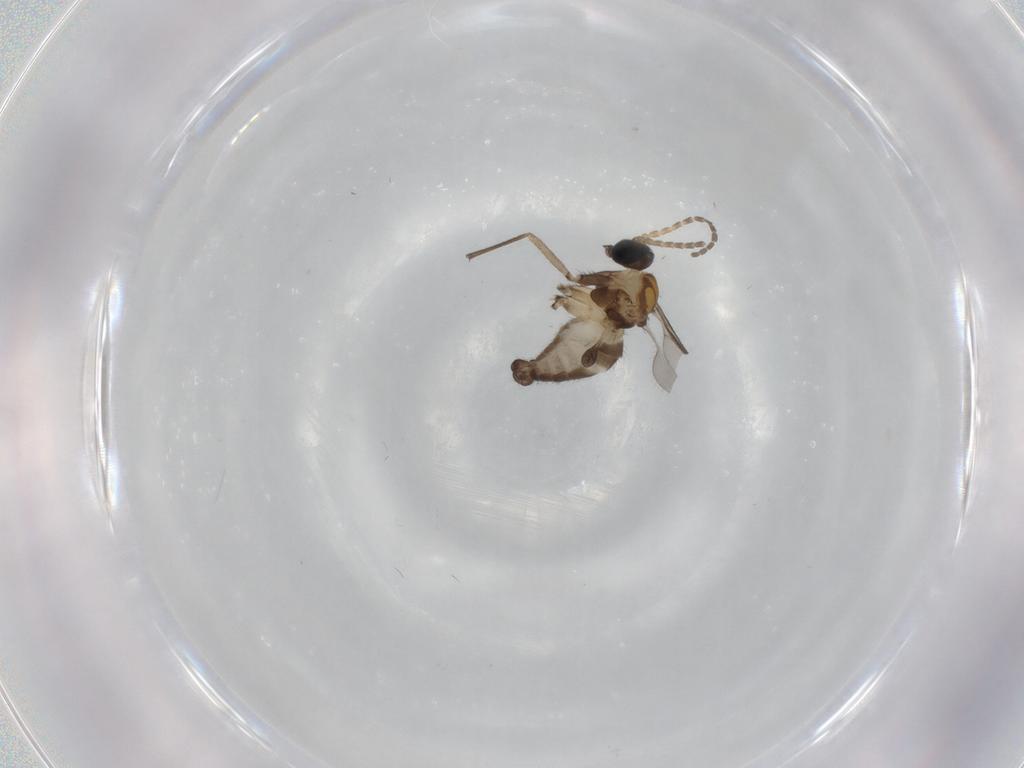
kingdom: Animalia
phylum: Arthropoda
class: Insecta
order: Diptera
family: Sciaridae
